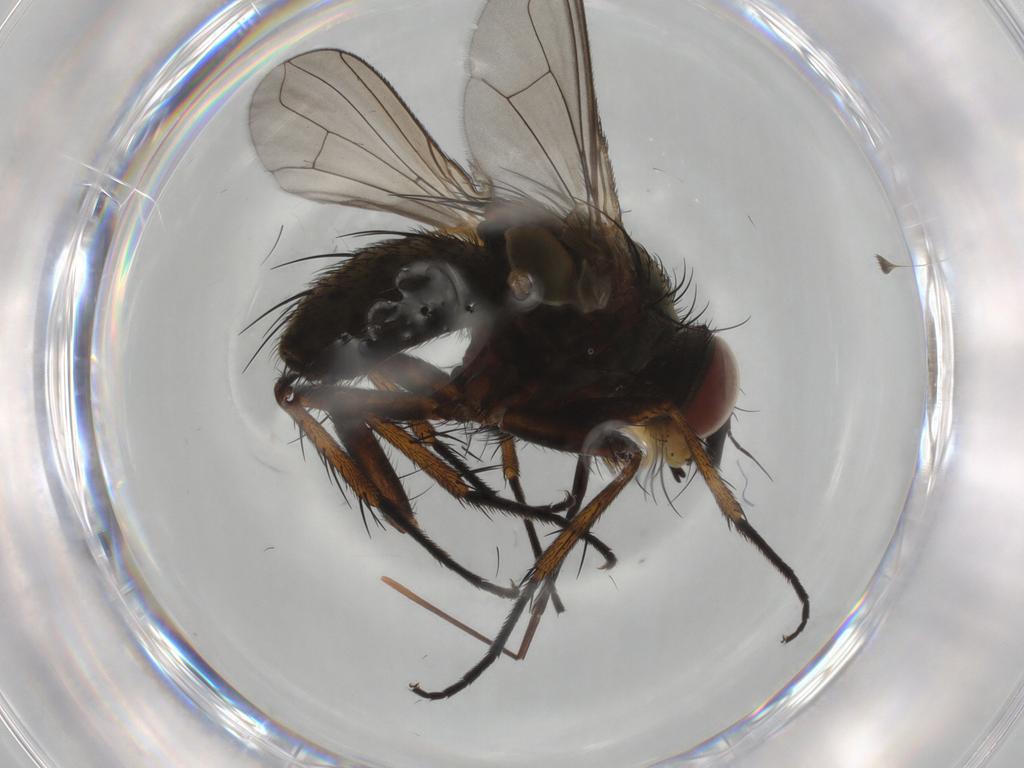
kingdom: Animalia
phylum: Arthropoda
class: Insecta
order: Diptera
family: Tachinidae
